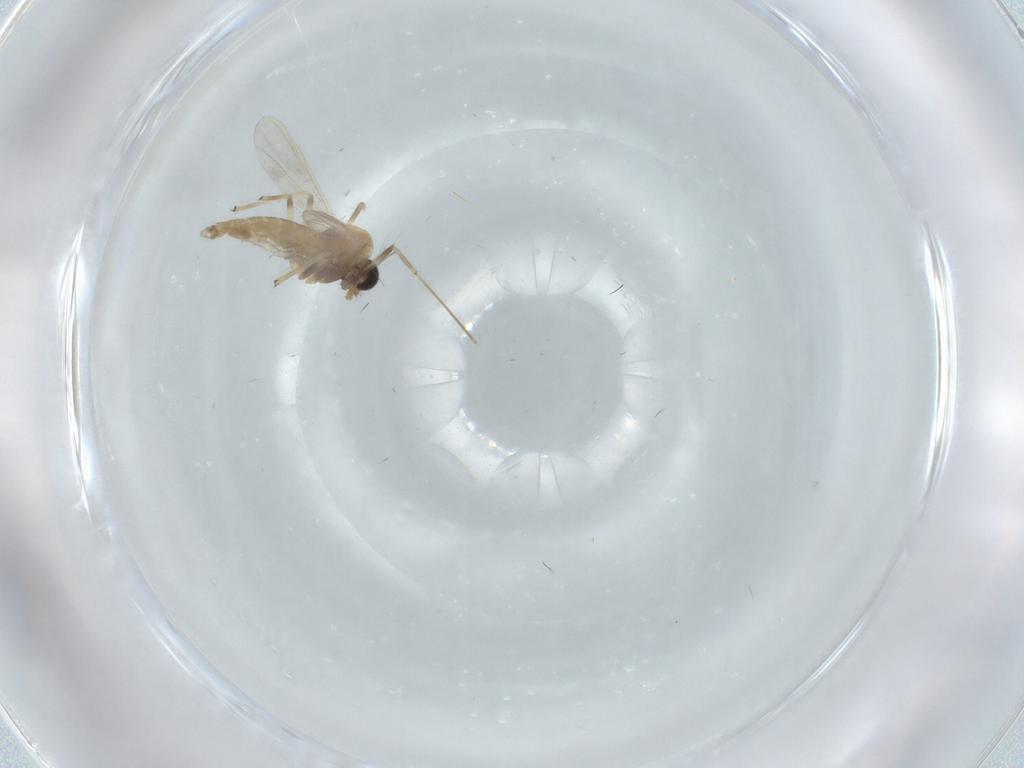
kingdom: Animalia
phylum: Arthropoda
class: Insecta
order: Diptera
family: Chironomidae
